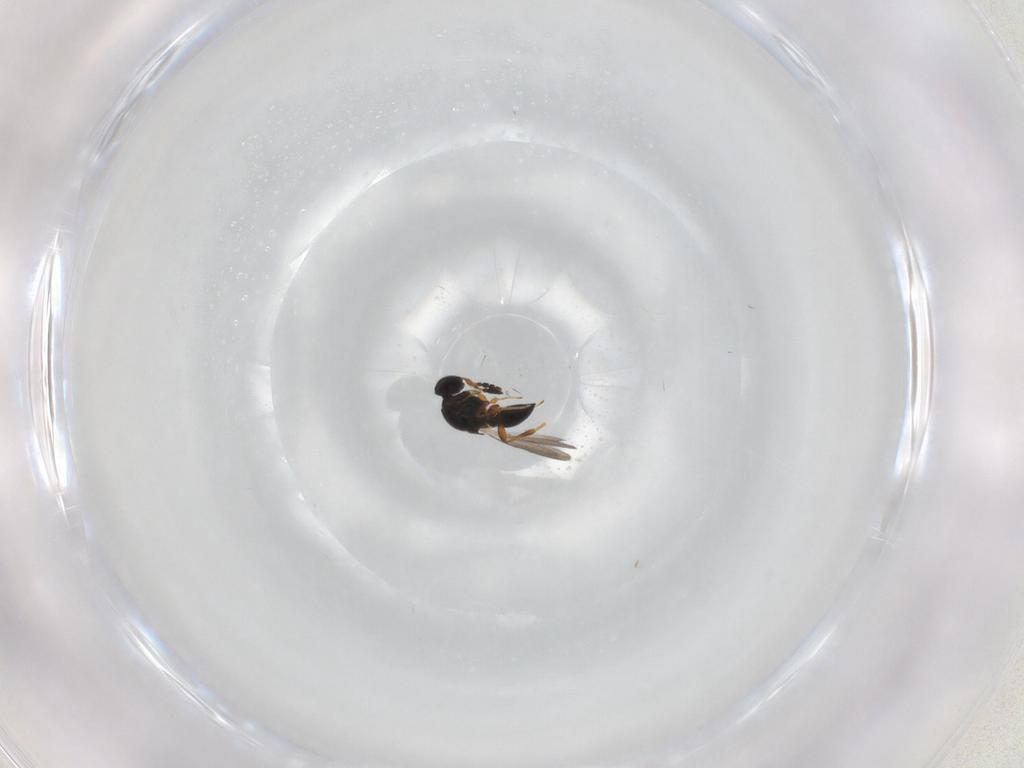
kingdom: Animalia
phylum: Arthropoda
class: Insecta
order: Hymenoptera
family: Platygastridae
